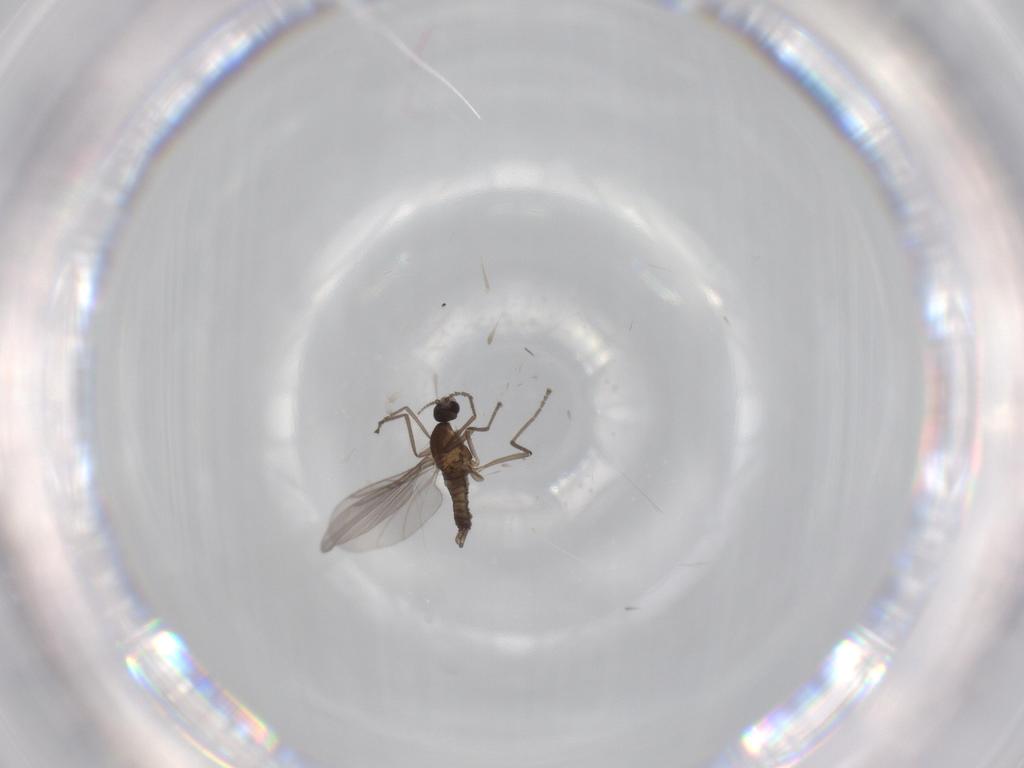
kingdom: Animalia
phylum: Arthropoda
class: Insecta
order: Diptera
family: Cecidomyiidae
